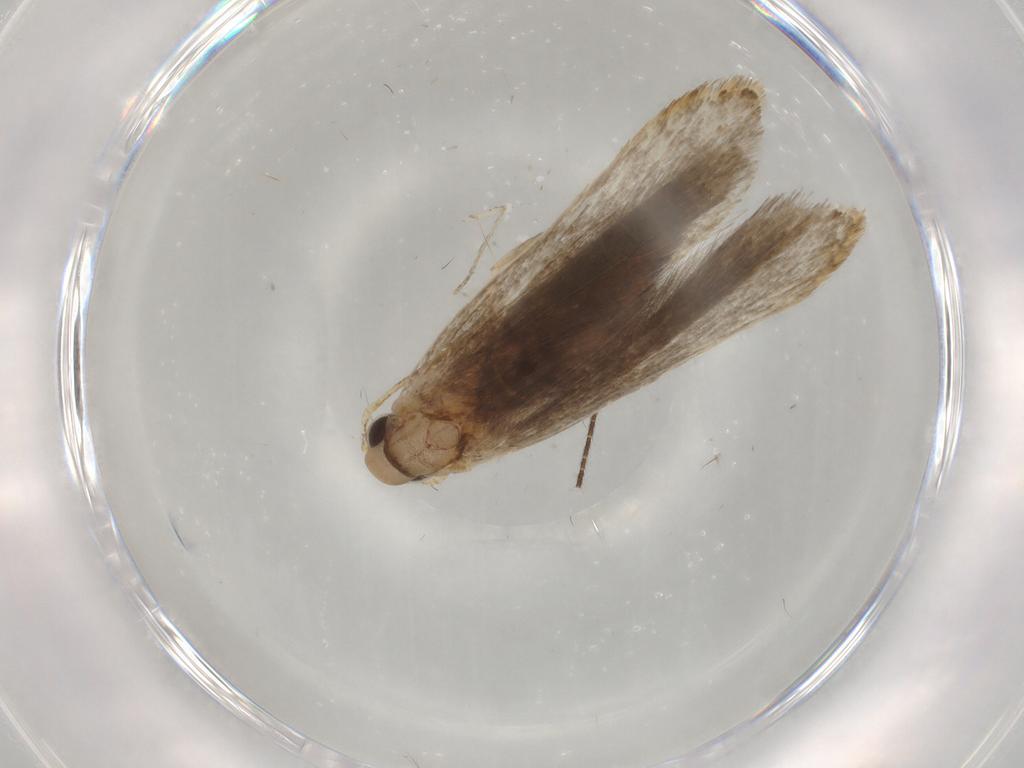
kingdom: Animalia
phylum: Arthropoda
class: Insecta
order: Lepidoptera
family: Gelechiidae
